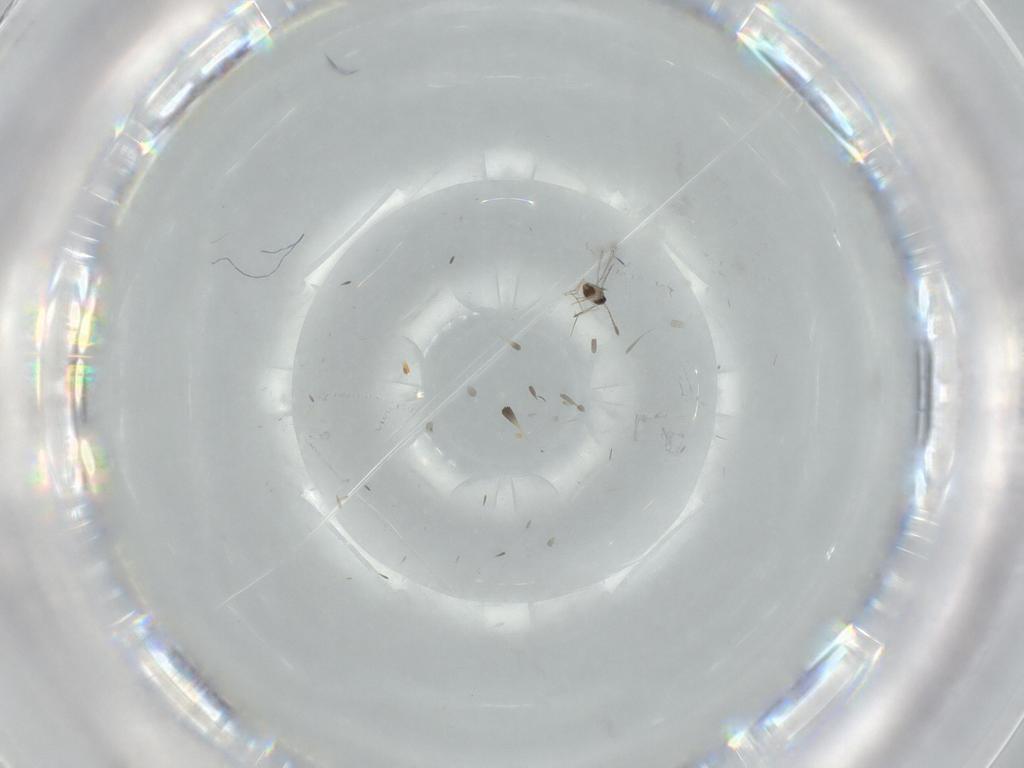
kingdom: Animalia
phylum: Arthropoda
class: Insecta
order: Hymenoptera
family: Mymaridae
